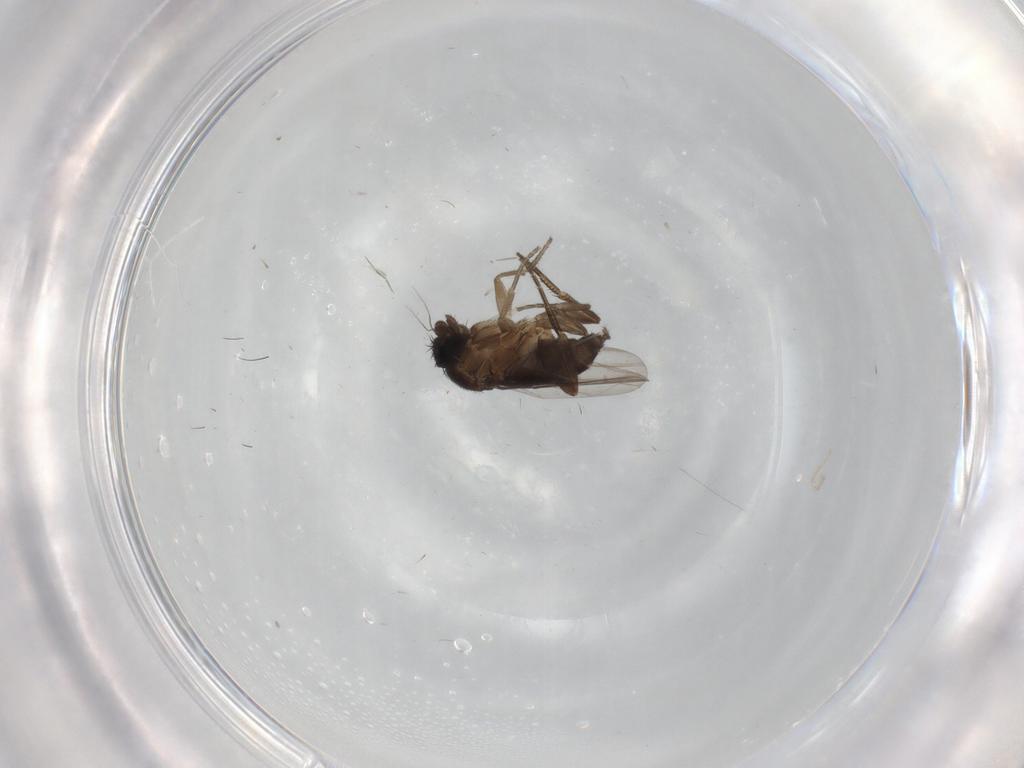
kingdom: Animalia
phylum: Arthropoda
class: Insecta
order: Diptera
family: Phoridae
